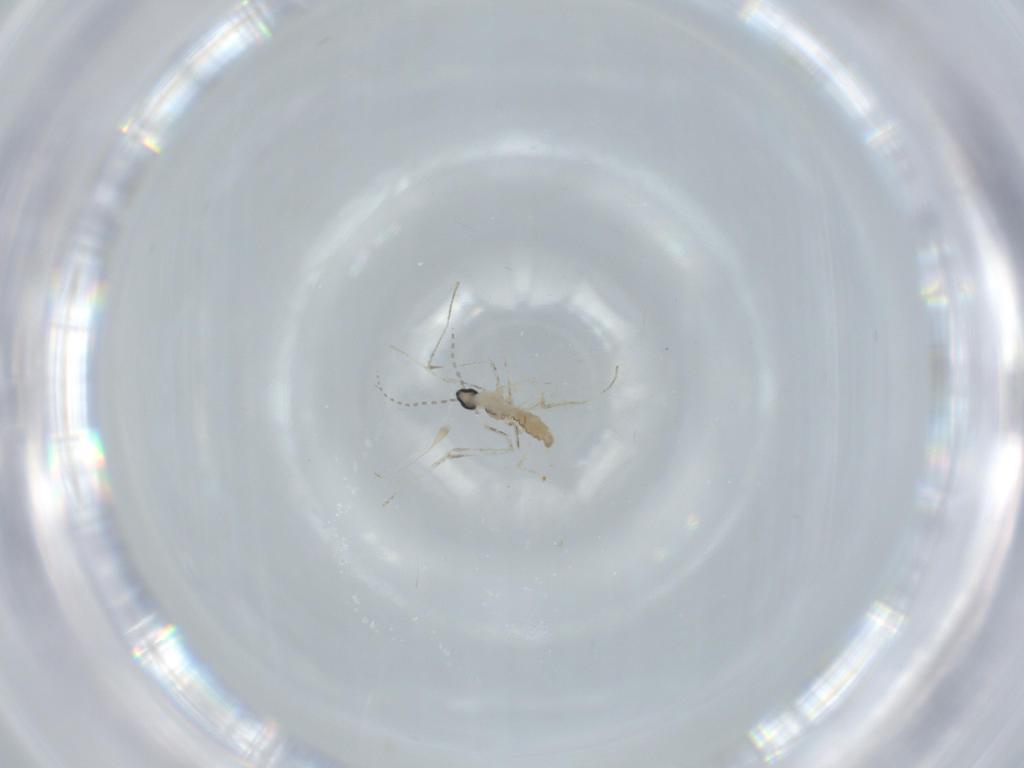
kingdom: Animalia
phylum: Arthropoda
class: Insecta
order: Diptera
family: Cecidomyiidae
